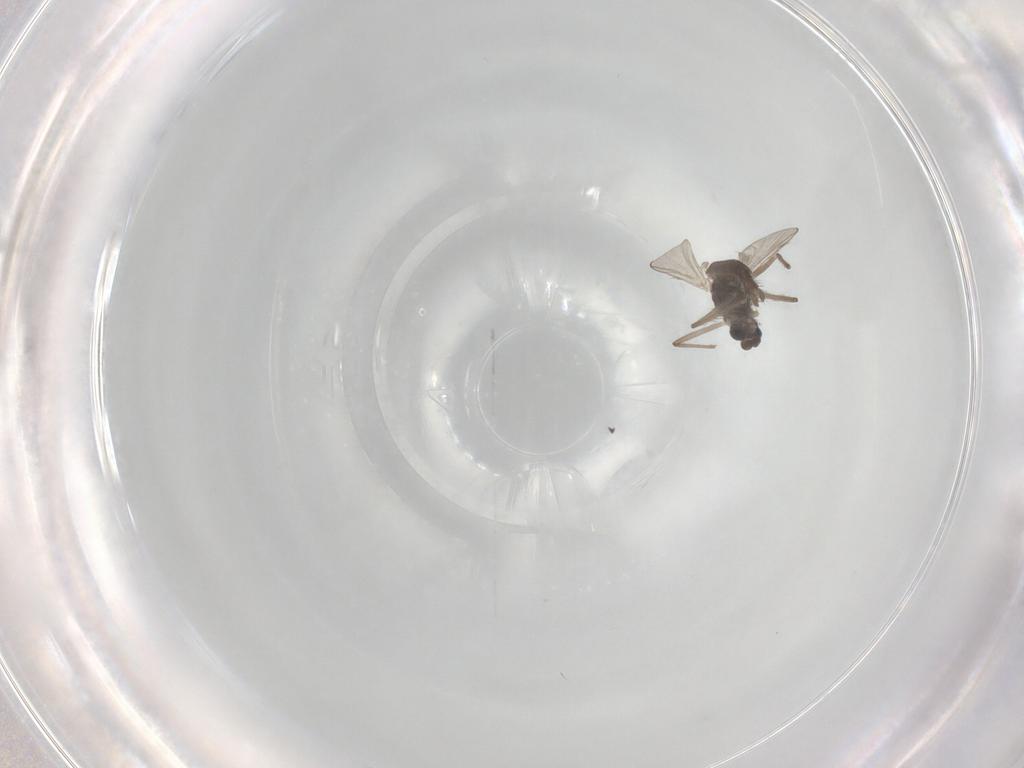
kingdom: Animalia
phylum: Arthropoda
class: Insecta
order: Diptera
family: Chironomidae
